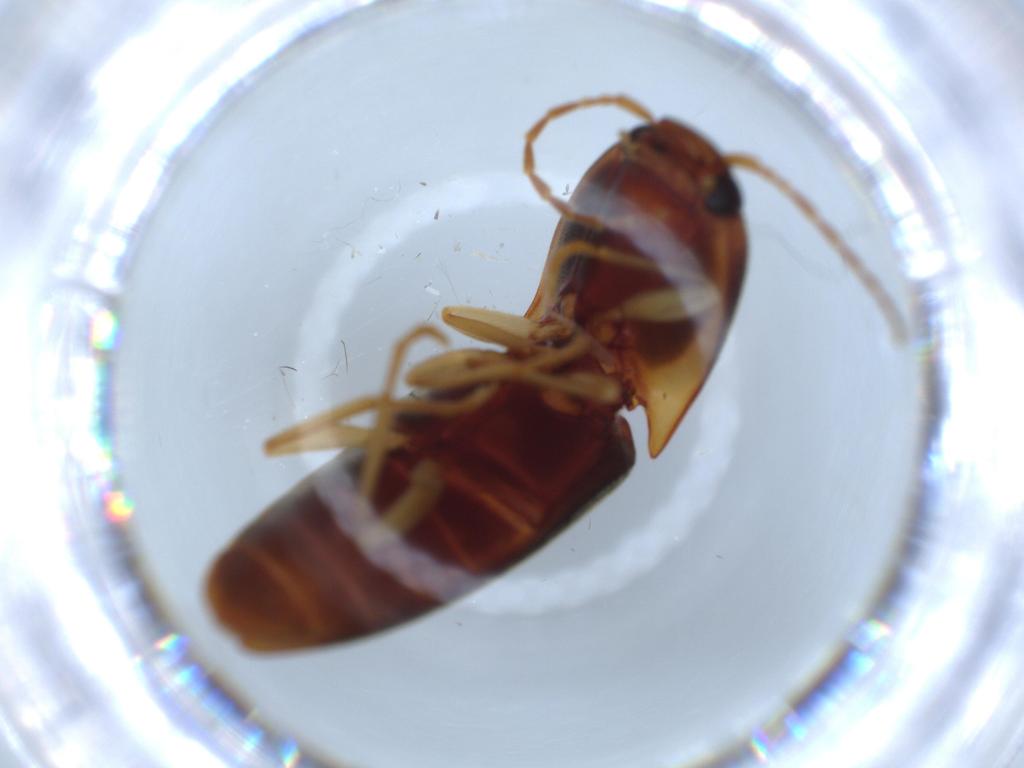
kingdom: Animalia
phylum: Arthropoda
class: Insecta
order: Coleoptera
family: Curculionidae
